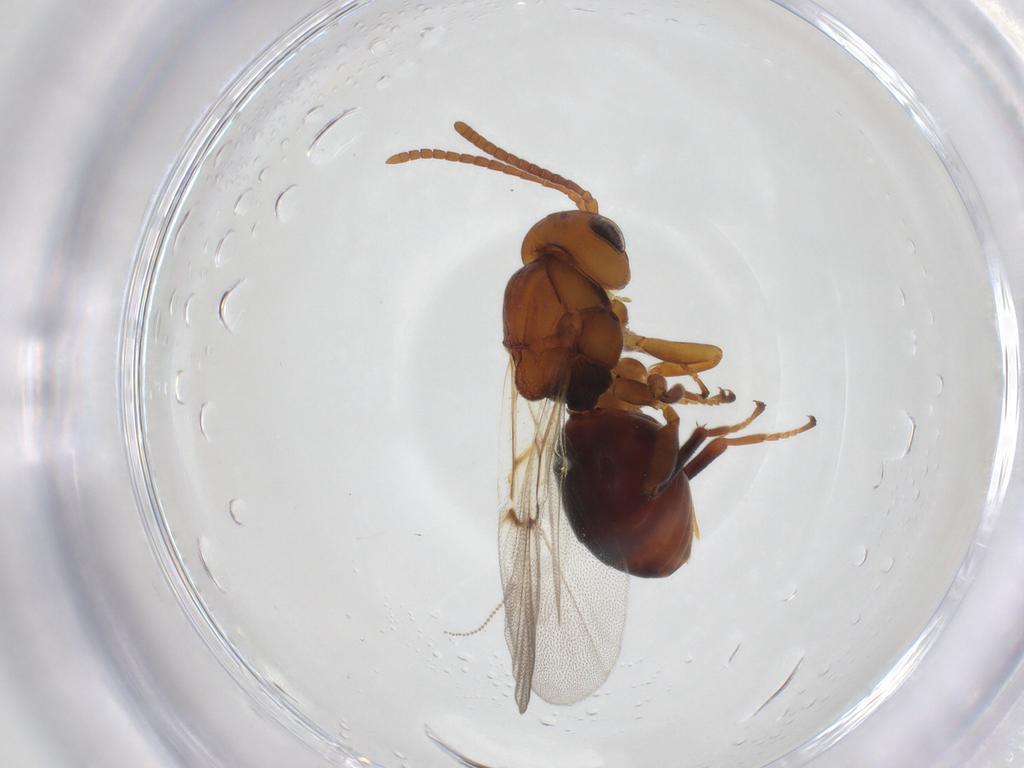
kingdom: Animalia
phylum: Arthropoda
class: Insecta
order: Hymenoptera
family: Cynipidae
